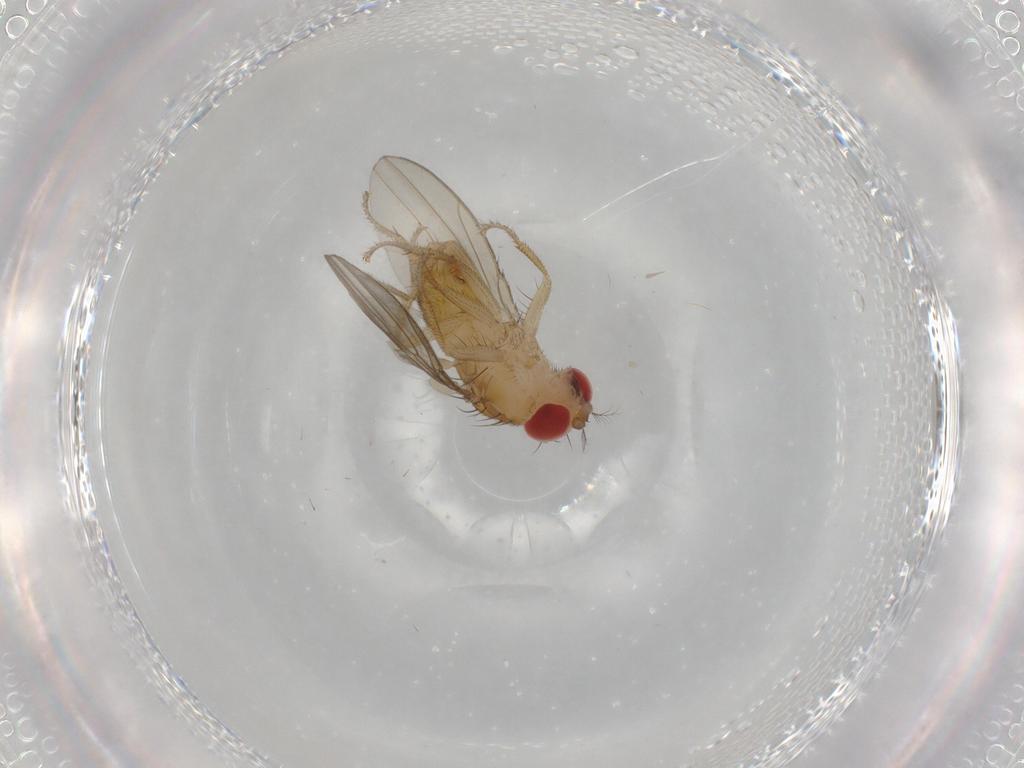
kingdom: Animalia
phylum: Arthropoda
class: Insecta
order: Diptera
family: Drosophilidae
